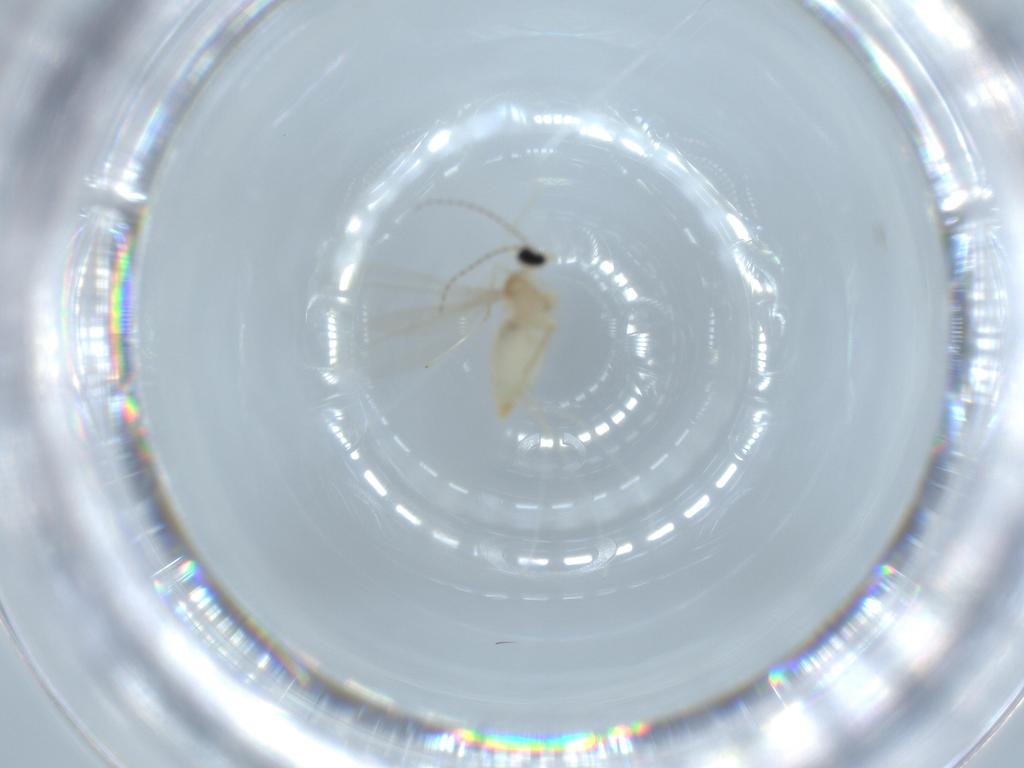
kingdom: Animalia
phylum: Arthropoda
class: Insecta
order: Diptera
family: Cecidomyiidae
